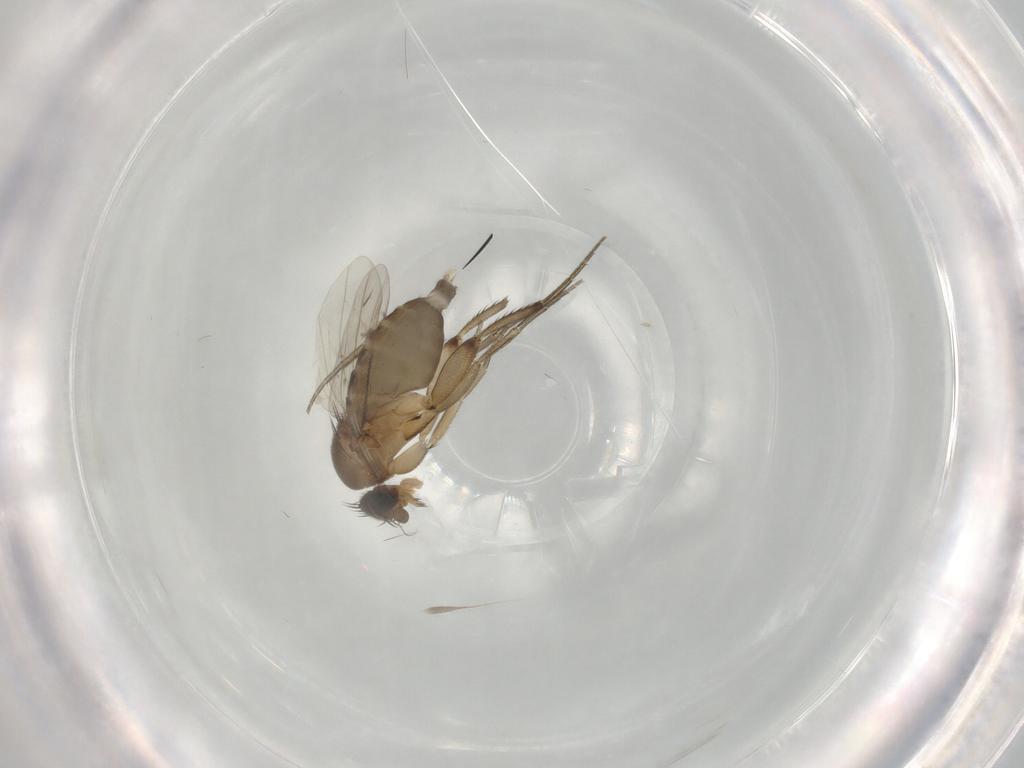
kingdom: Animalia
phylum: Arthropoda
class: Insecta
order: Diptera
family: Phoridae
